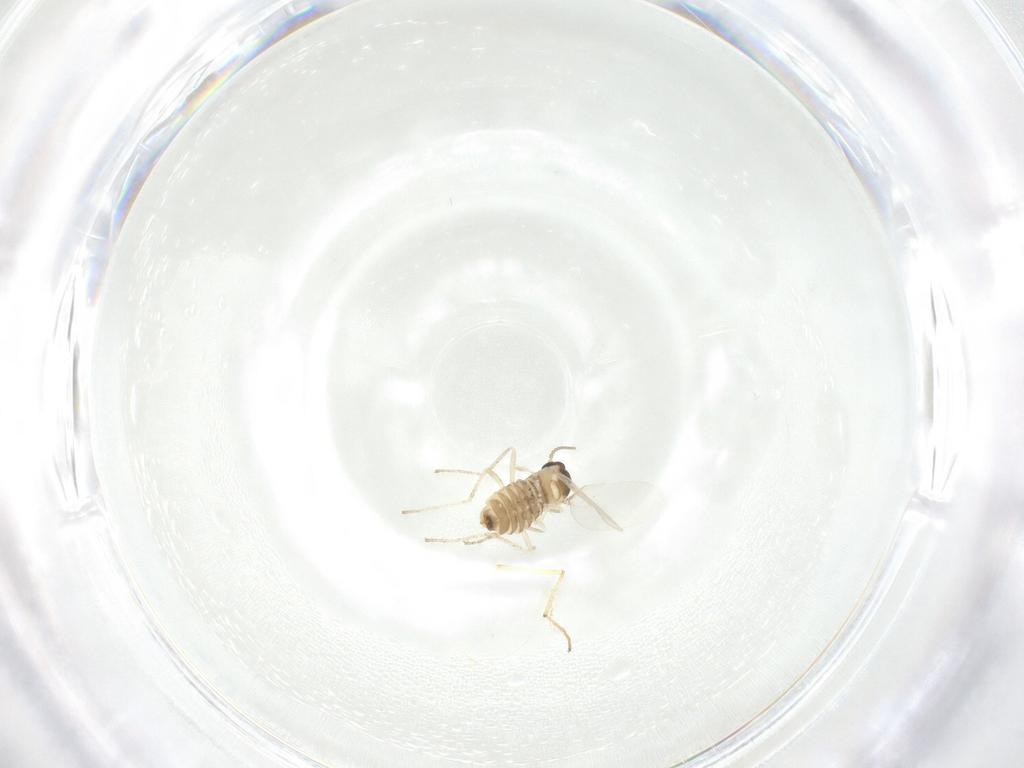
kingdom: Animalia
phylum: Arthropoda
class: Insecta
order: Diptera
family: Cecidomyiidae
